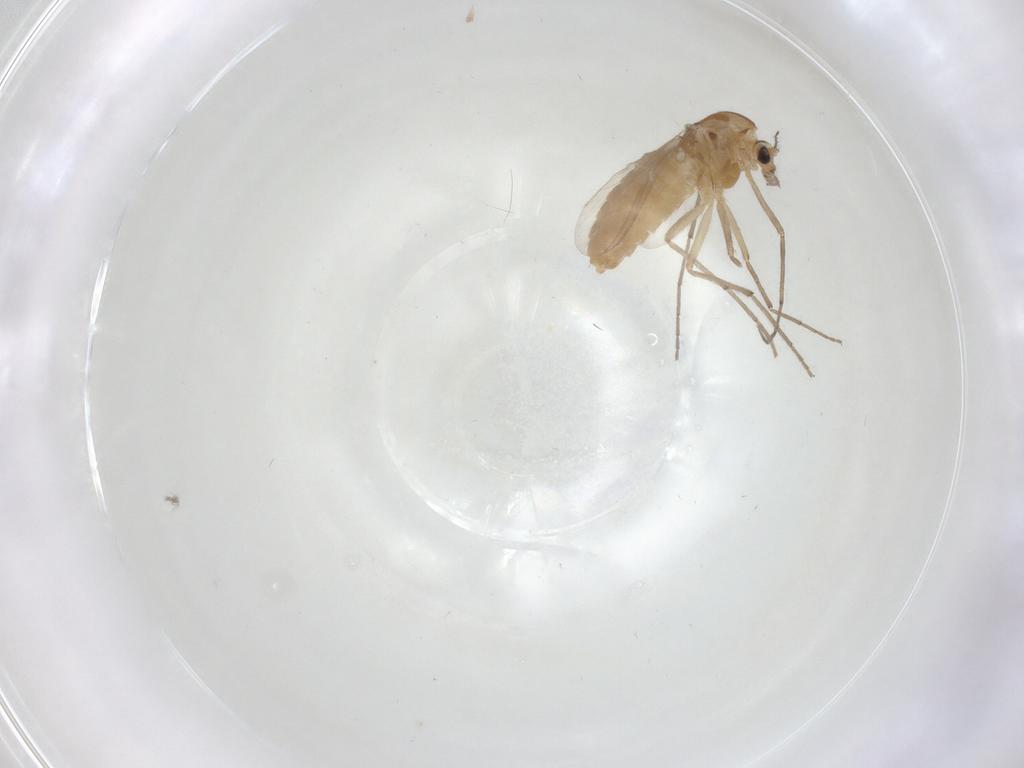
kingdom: Animalia
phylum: Arthropoda
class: Insecta
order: Diptera
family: Chironomidae
